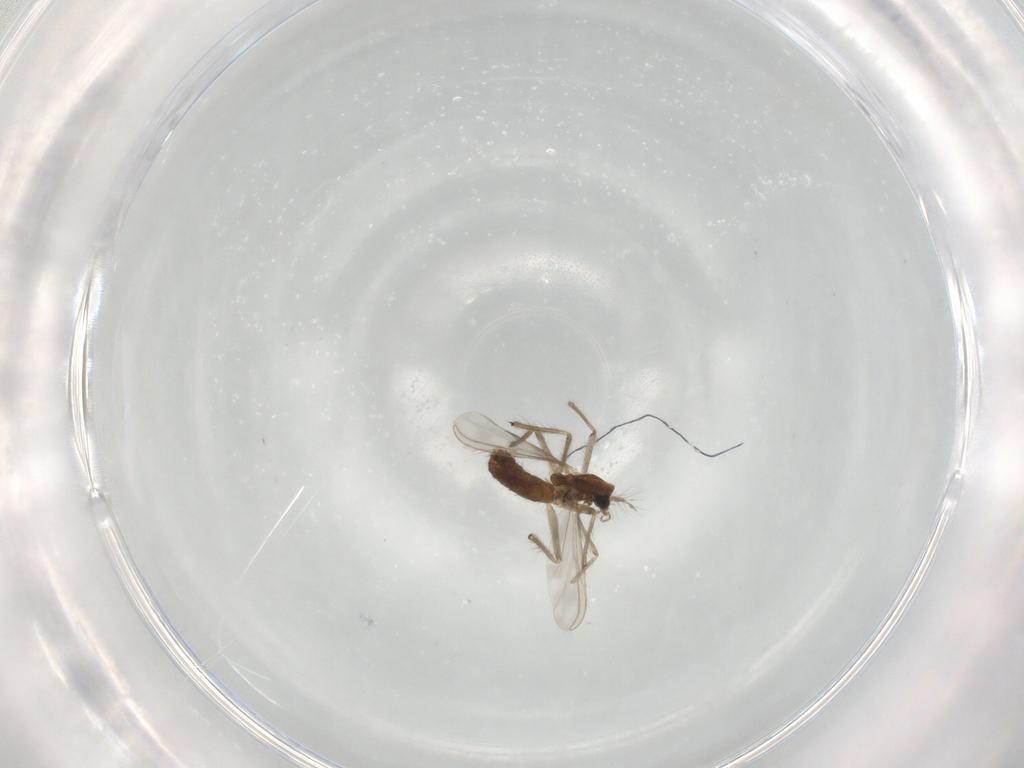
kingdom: Animalia
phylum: Arthropoda
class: Insecta
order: Diptera
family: Chironomidae
